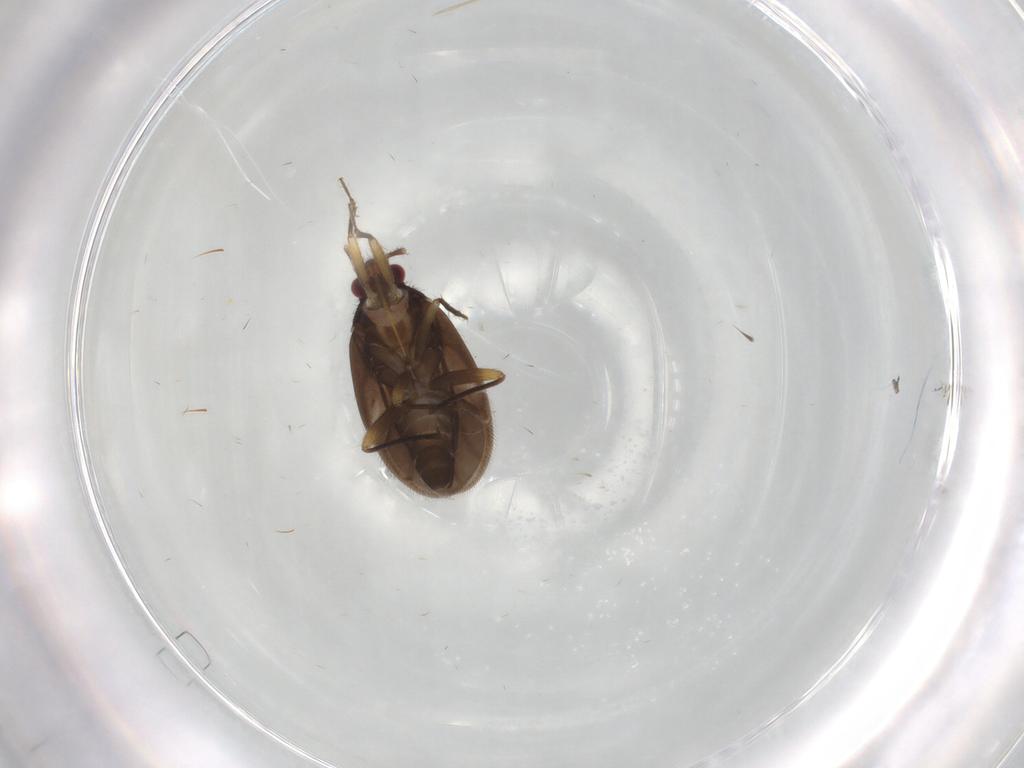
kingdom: Animalia
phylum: Arthropoda
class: Insecta
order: Hemiptera
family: Ceratocombidae
